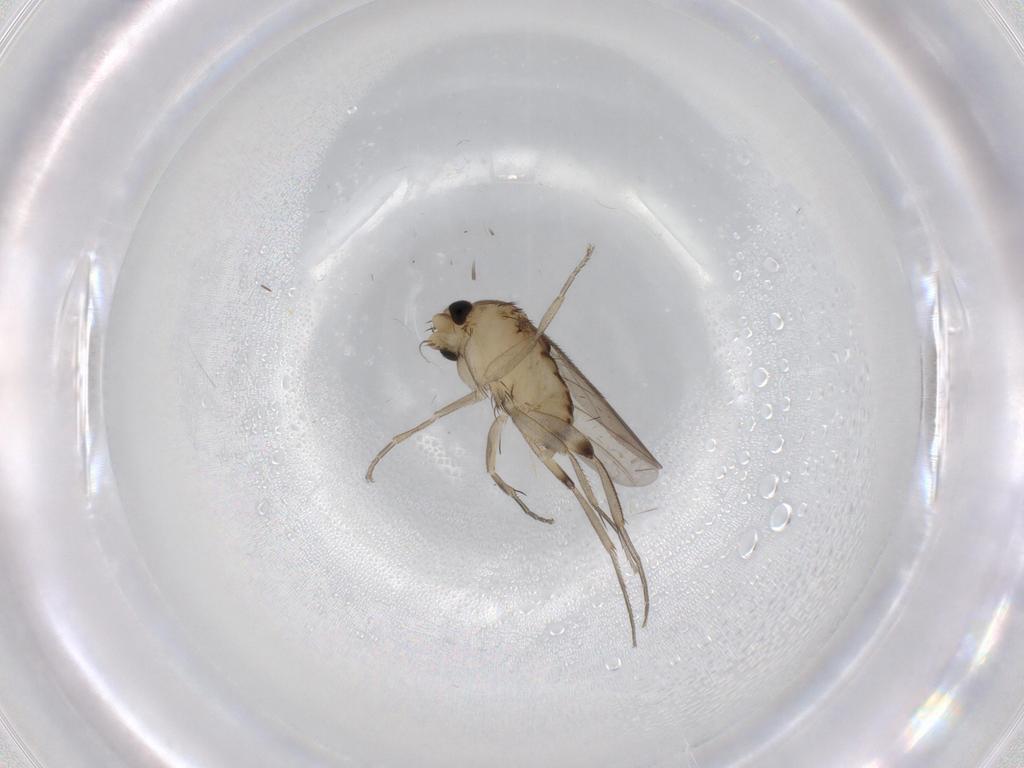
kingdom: Animalia
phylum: Arthropoda
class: Insecta
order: Diptera
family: Phoridae
